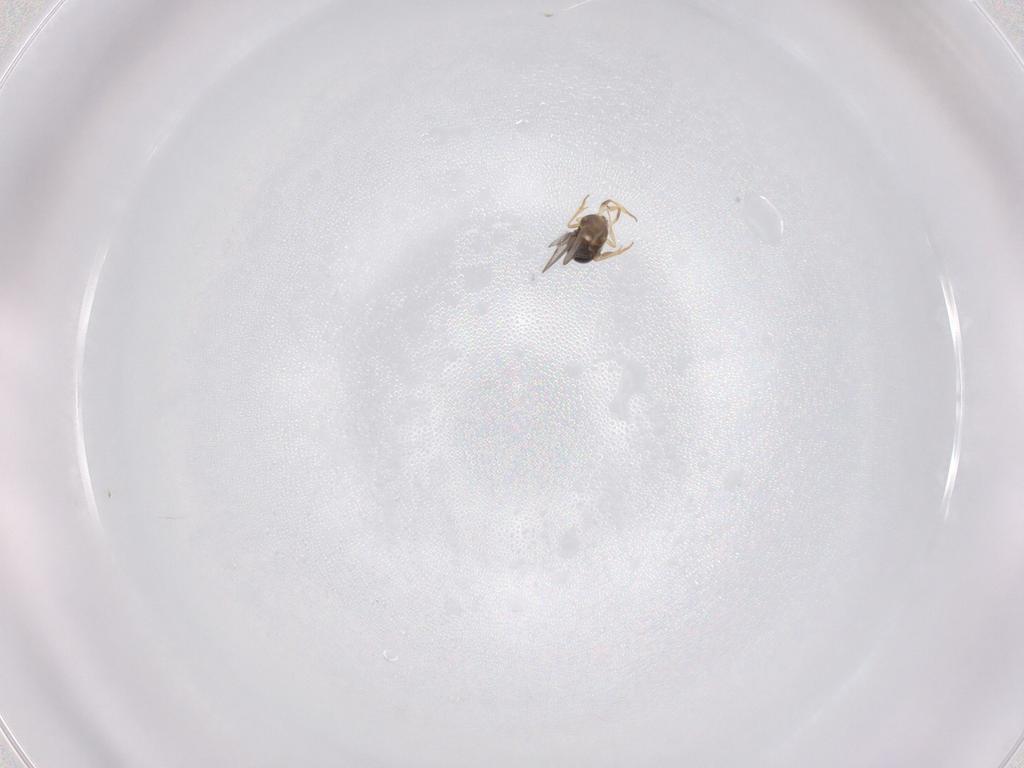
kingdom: Animalia
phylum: Arthropoda
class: Insecta
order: Hymenoptera
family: Encyrtidae
